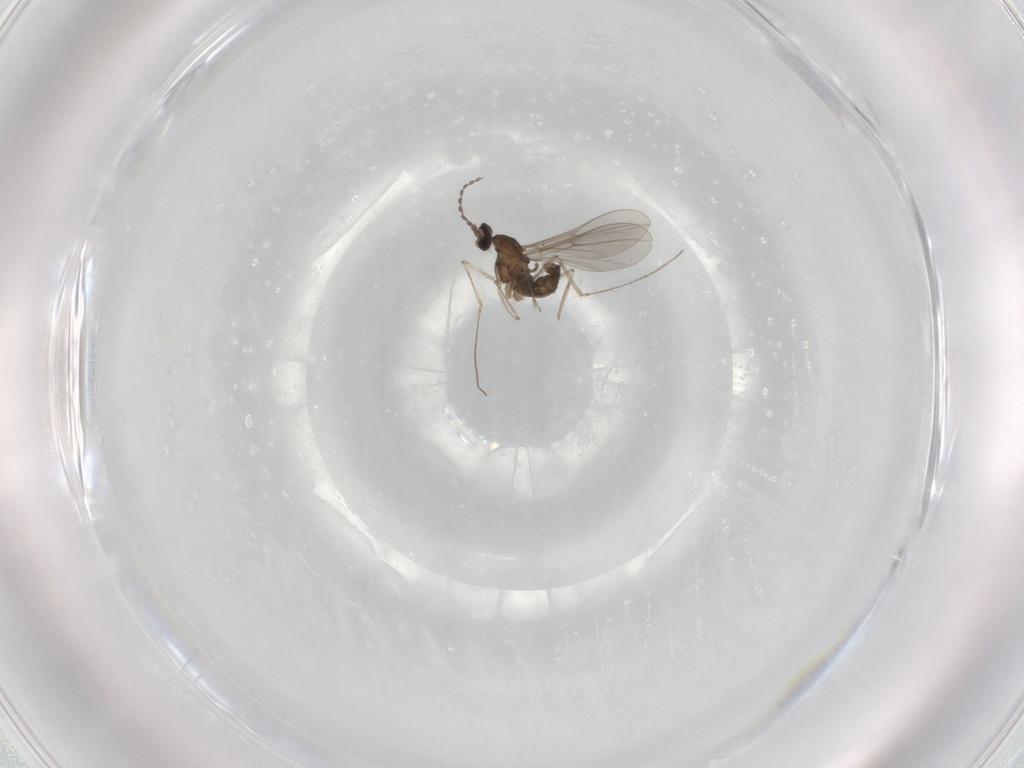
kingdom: Animalia
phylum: Arthropoda
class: Insecta
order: Diptera
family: Cecidomyiidae
